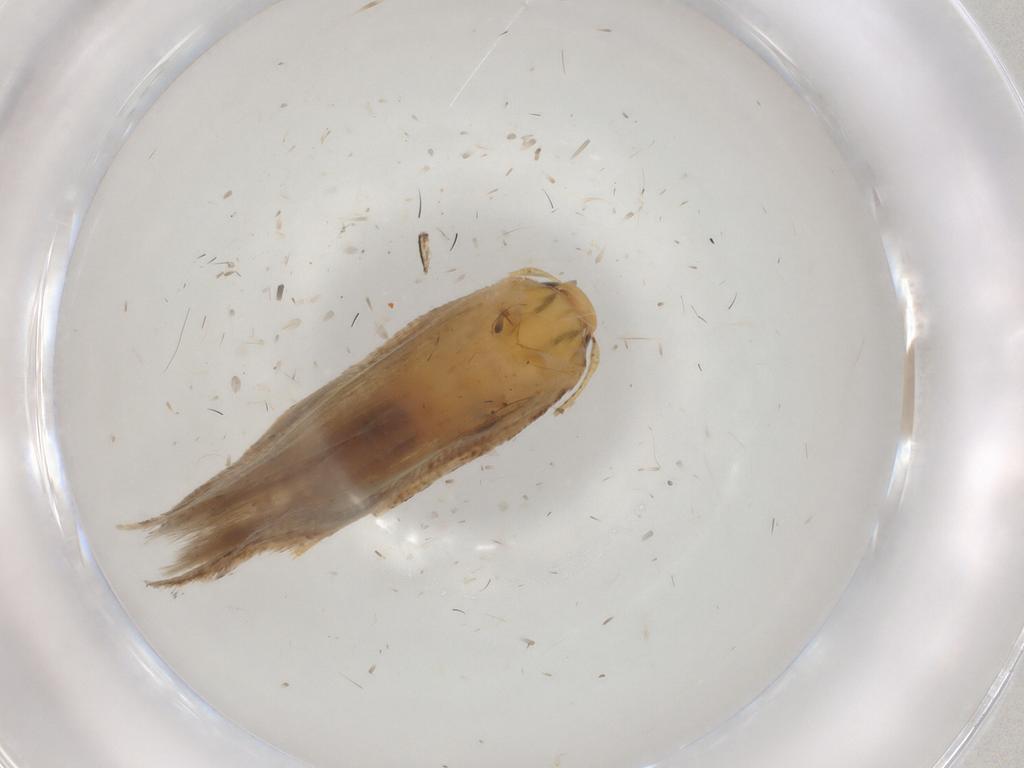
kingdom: Animalia
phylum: Arthropoda
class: Insecta
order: Lepidoptera
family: Momphidae
